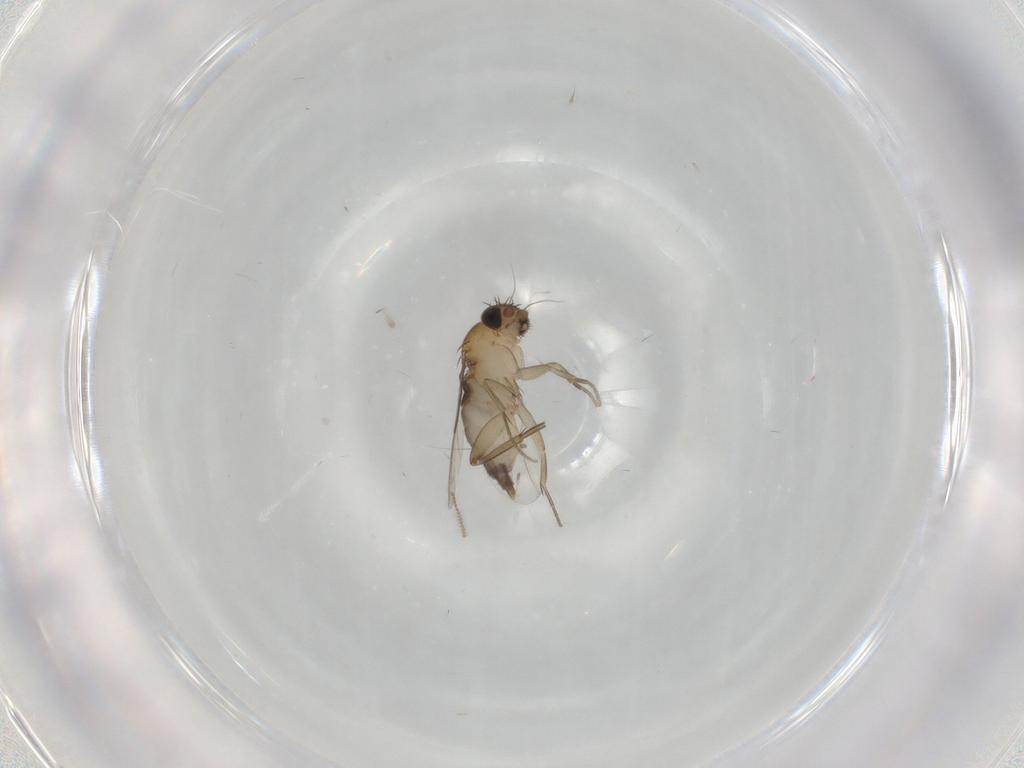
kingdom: Animalia
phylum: Arthropoda
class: Insecta
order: Diptera
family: Phoridae
